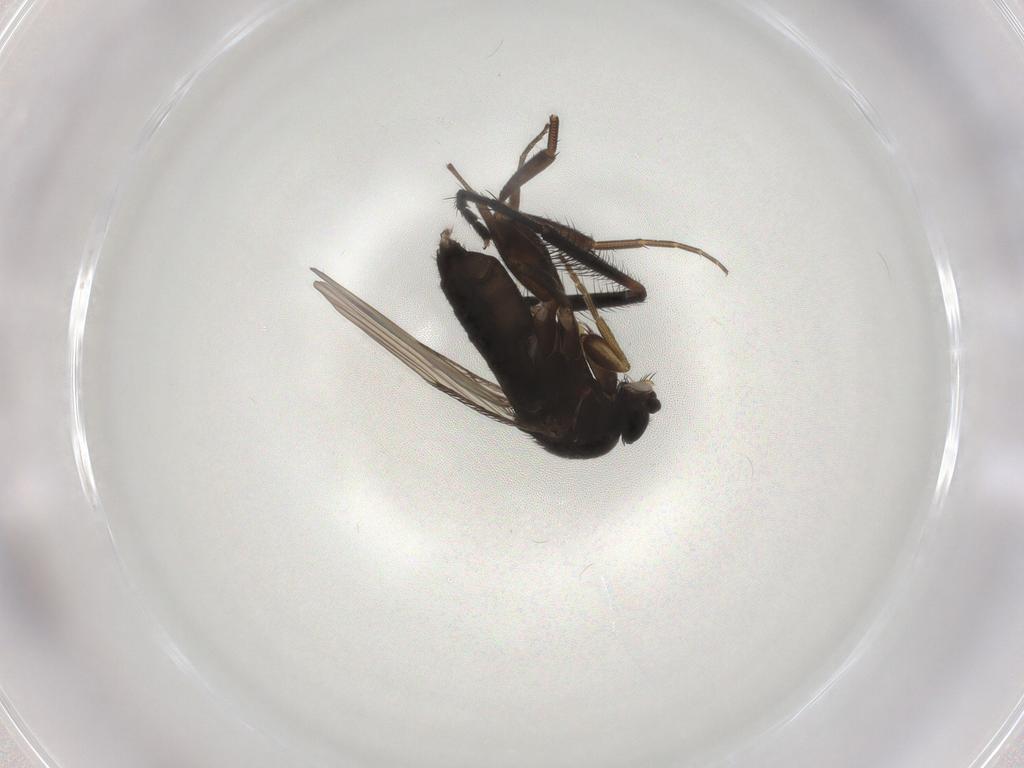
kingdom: Animalia
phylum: Arthropoda
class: Insecta
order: Diptera
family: Phoridae
